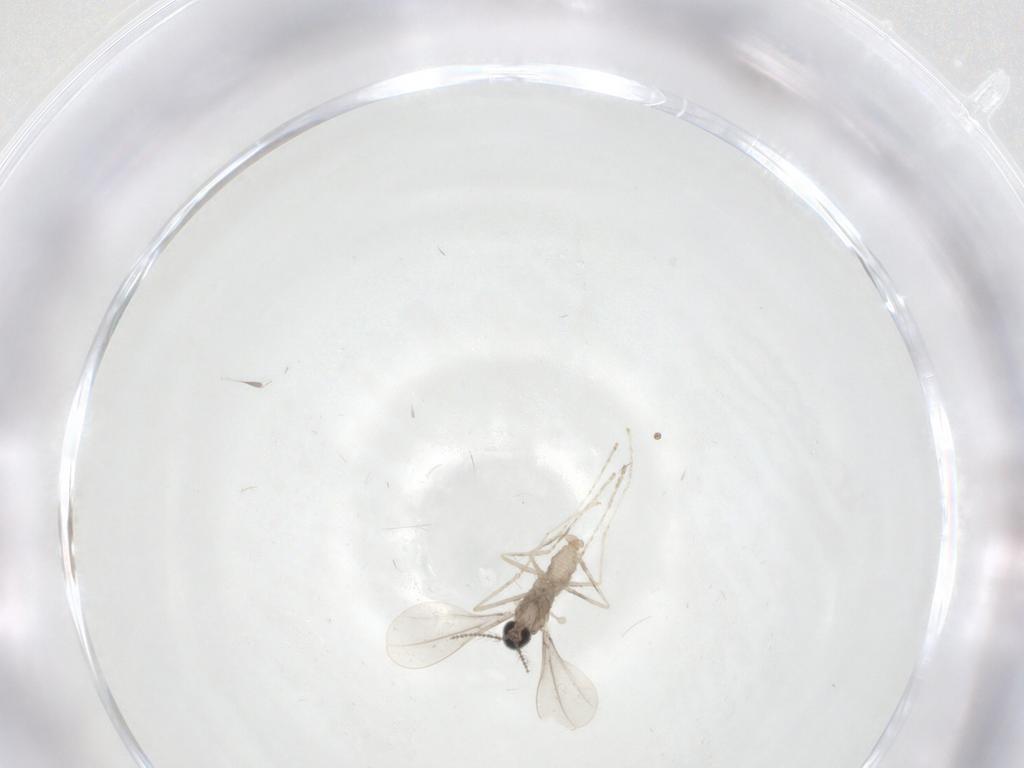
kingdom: Animalia
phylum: Arthropoda
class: Insecta
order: Diptera
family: Cecidomyiidae
